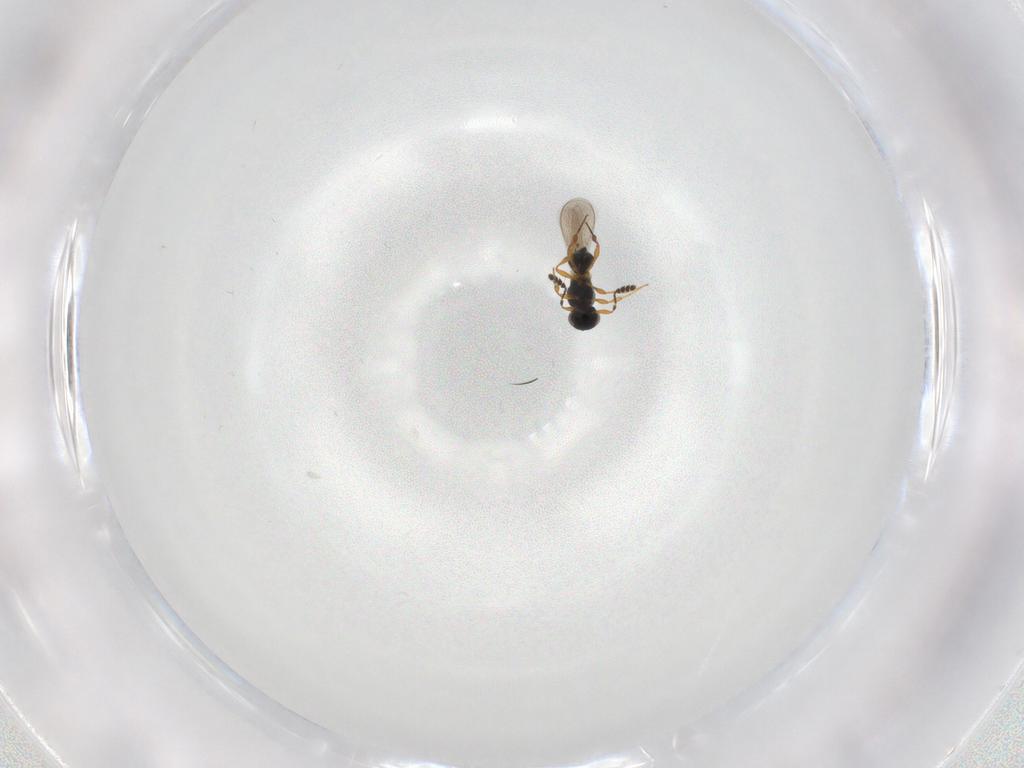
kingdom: Animalia
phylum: Arthropoda
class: Insecta
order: Hymenoptera
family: Platygastridae
